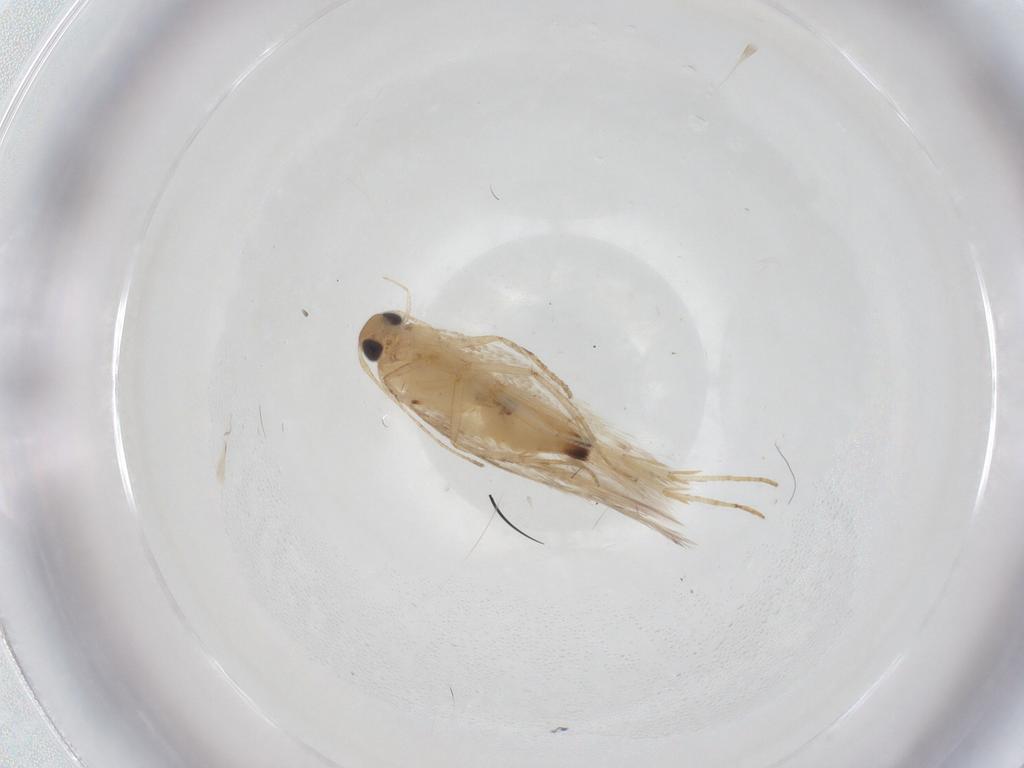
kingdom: Animalia
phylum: Arthropoda
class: Insecta
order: Lepidoptera
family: Gelechiidae
